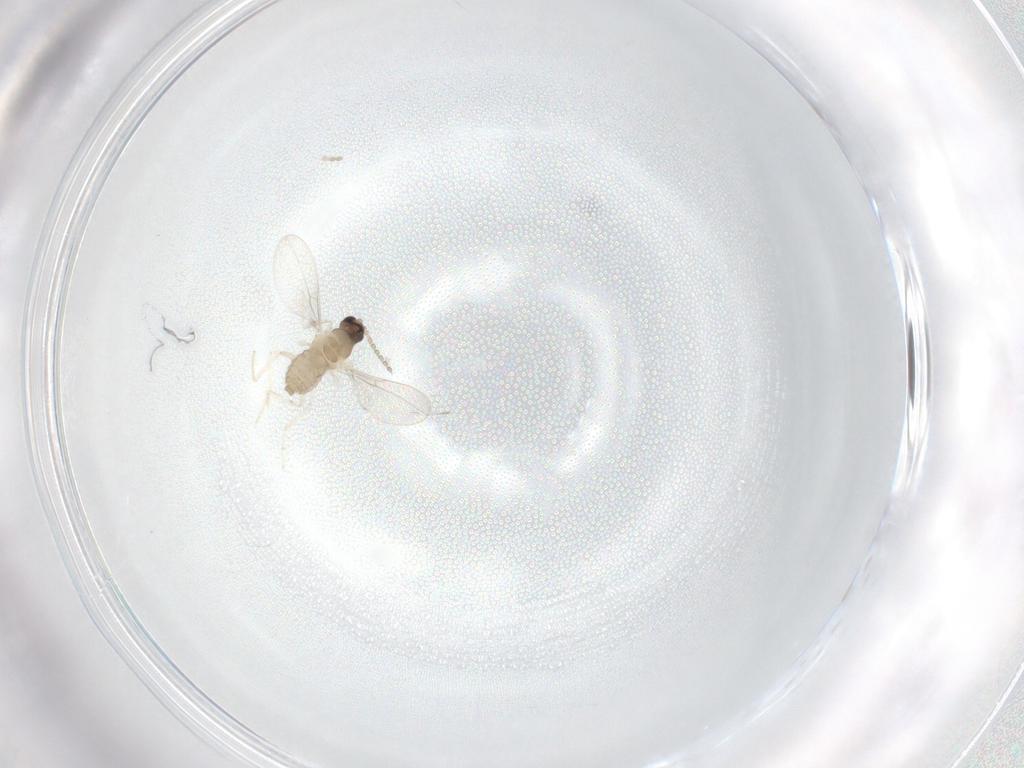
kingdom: Animalia
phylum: Arthropoda
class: Insecta
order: Diptera
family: Cecidomyiidae
